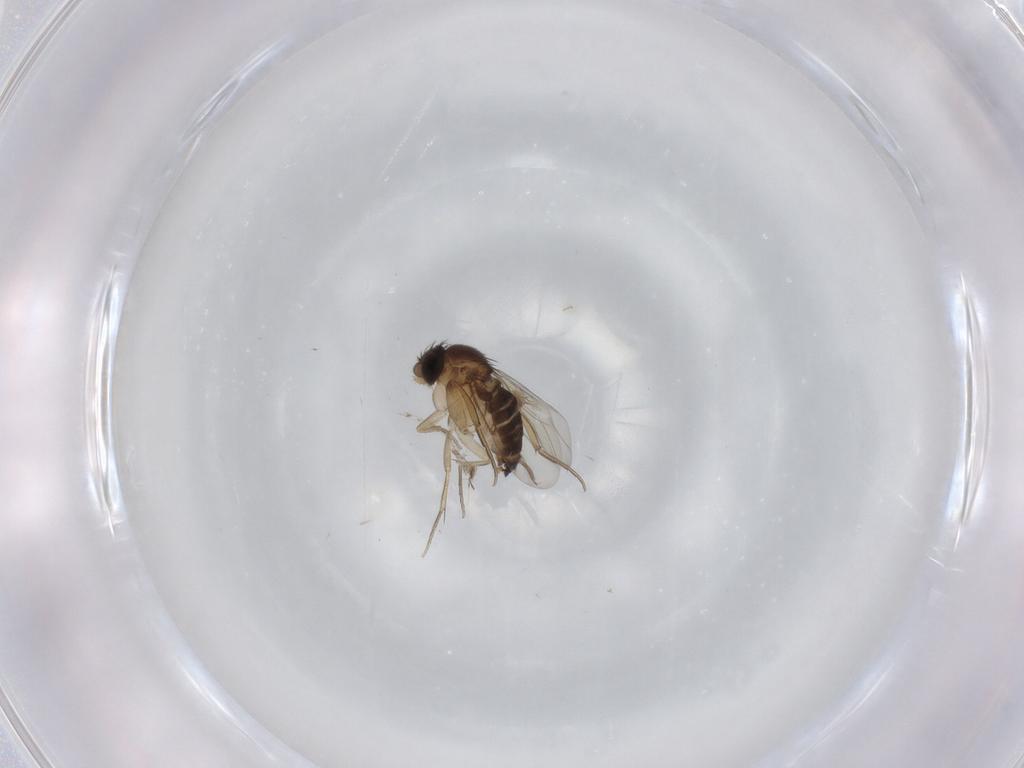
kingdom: Animalia
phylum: Arthropoda
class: Insecta
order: Diptera
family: Cecidomyiidae
